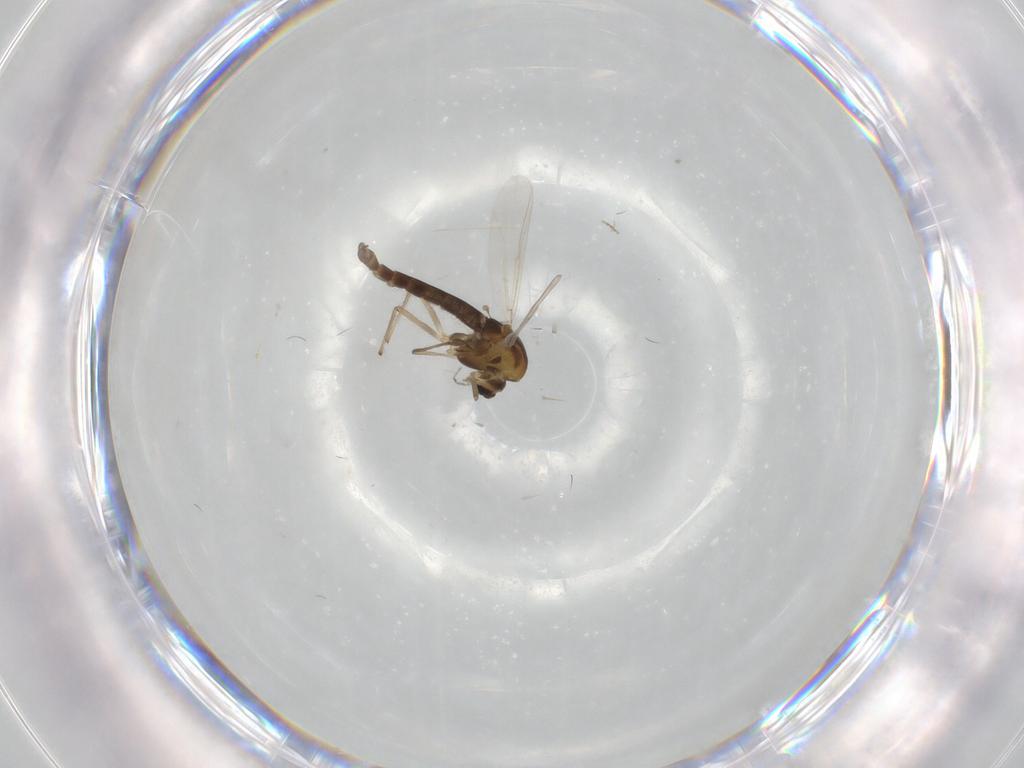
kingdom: Animalia
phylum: Arthropoda
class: Insecta
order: Diptera
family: Chironomidae
